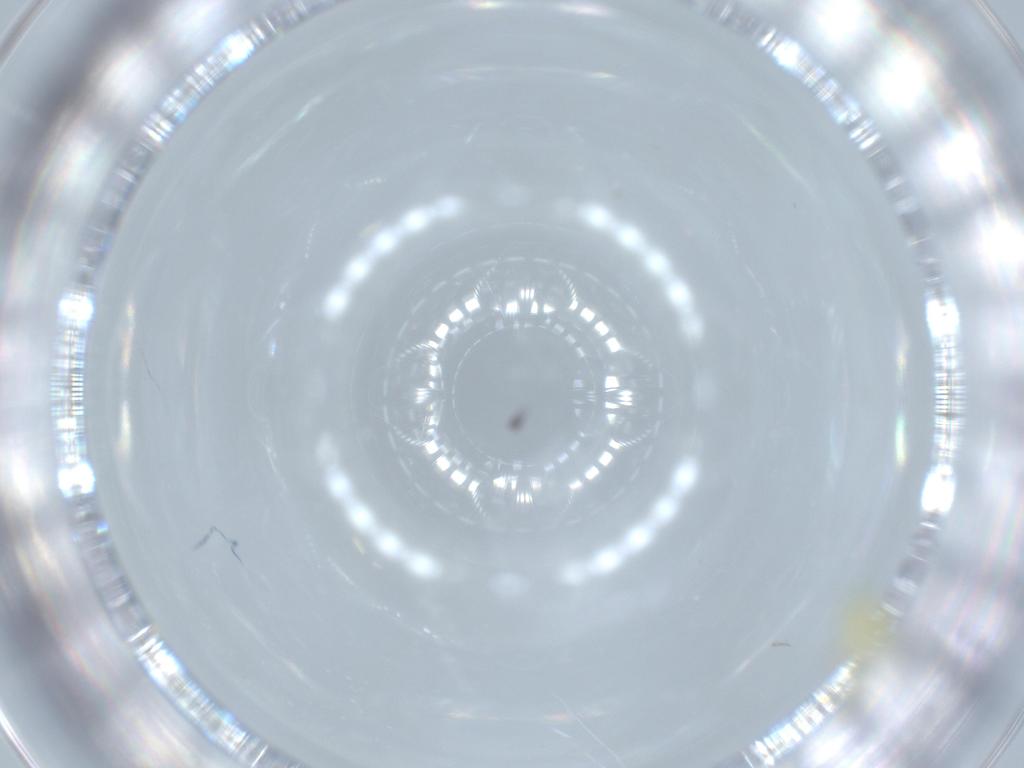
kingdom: Animalia
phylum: Arthropoda
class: Insecta
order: Hemiptera
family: Aleyrodidae
